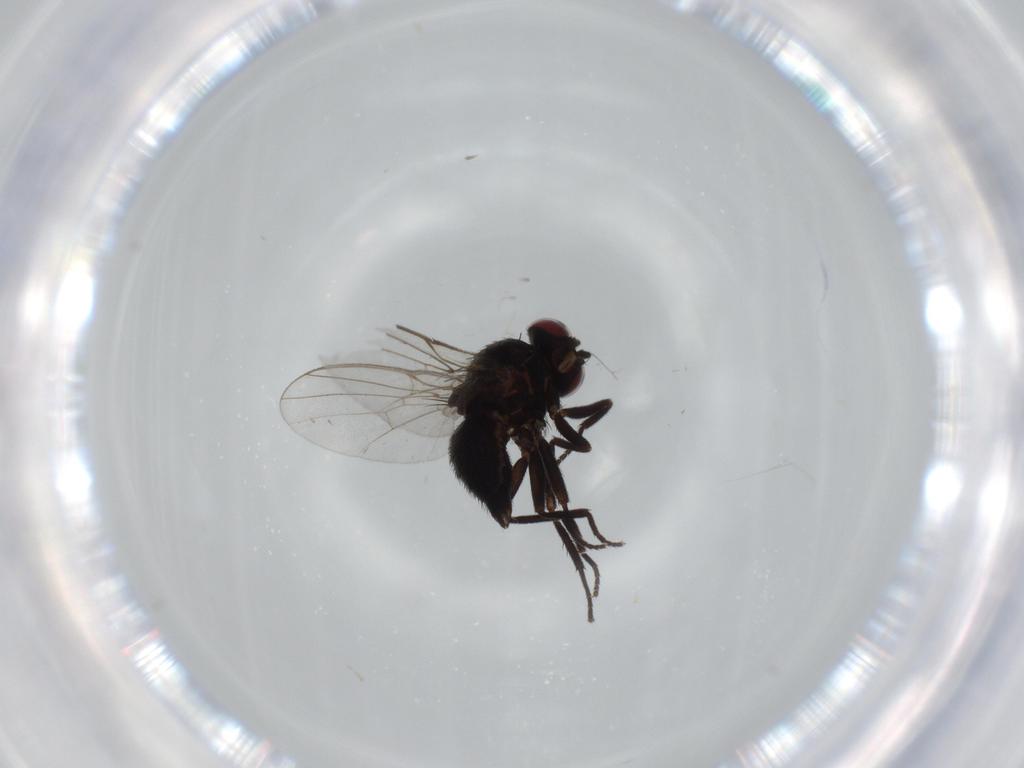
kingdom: Animalia
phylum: Arthropoda
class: Insecta
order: Diptera
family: Agromyzidae
